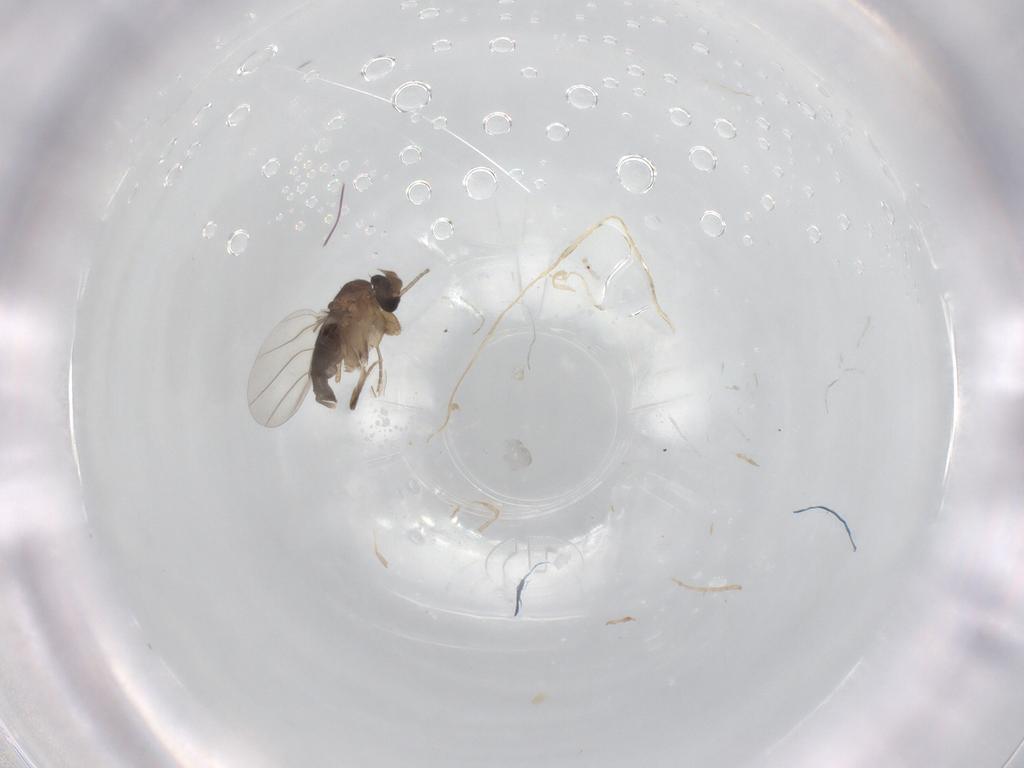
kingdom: Animalia
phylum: Arthropoda
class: Insecta
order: Diptera
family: Phoridae
